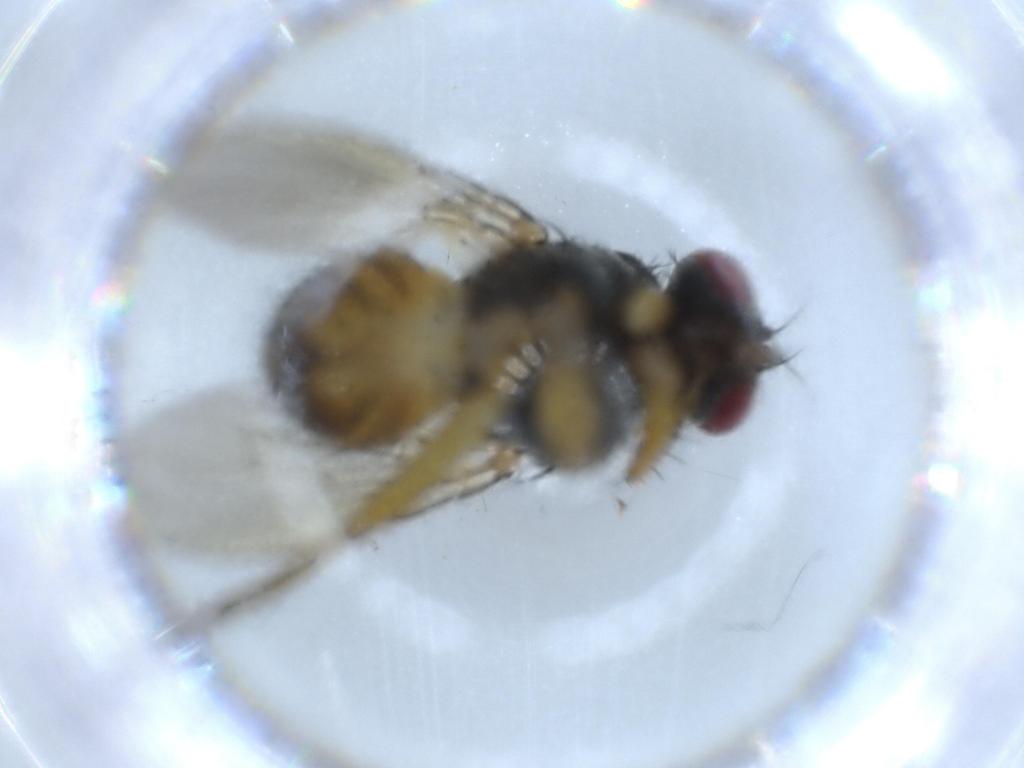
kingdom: Animalia
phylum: Arthropoda
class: Insecta
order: Diptera
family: Muscidae
